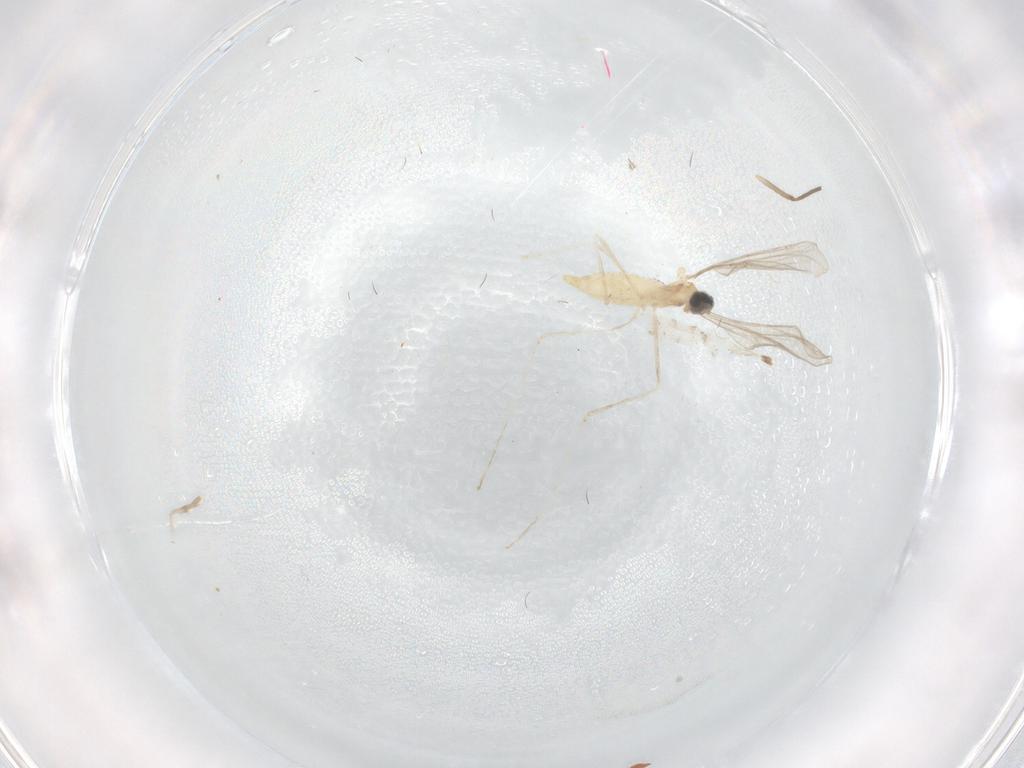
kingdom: Animalia
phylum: Arthropoda
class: Insecta
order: Diptera
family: Cecidomyiidae
